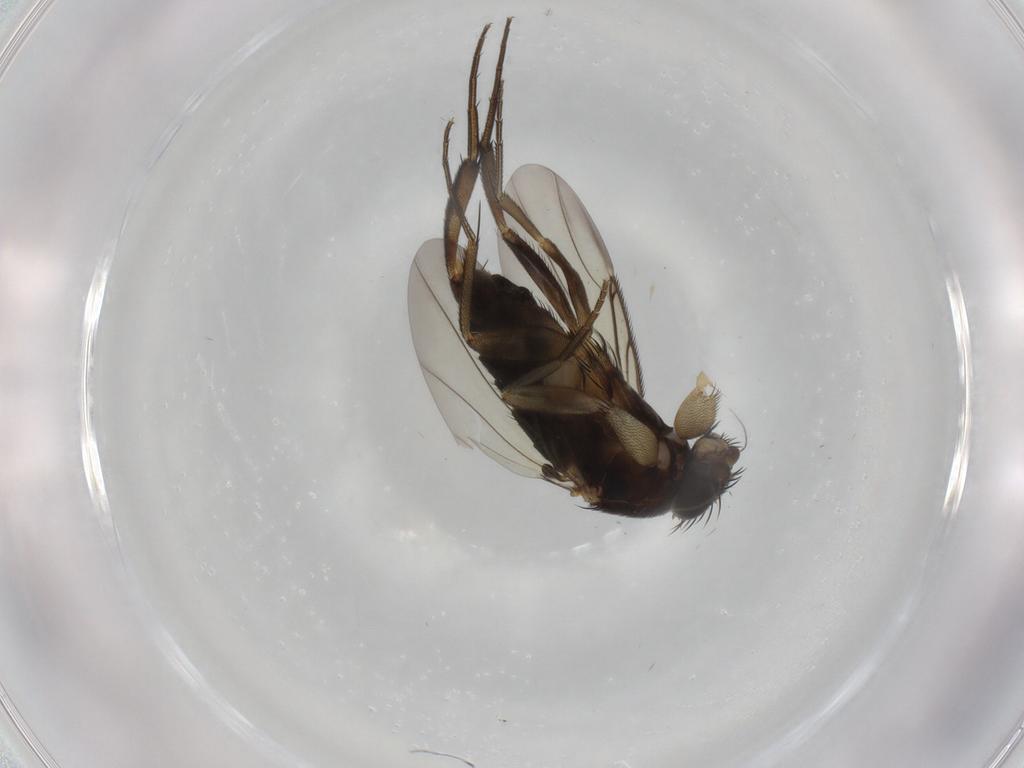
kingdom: Animalia
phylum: Arthropoda
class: Insecta
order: Diptera
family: Phoridae
